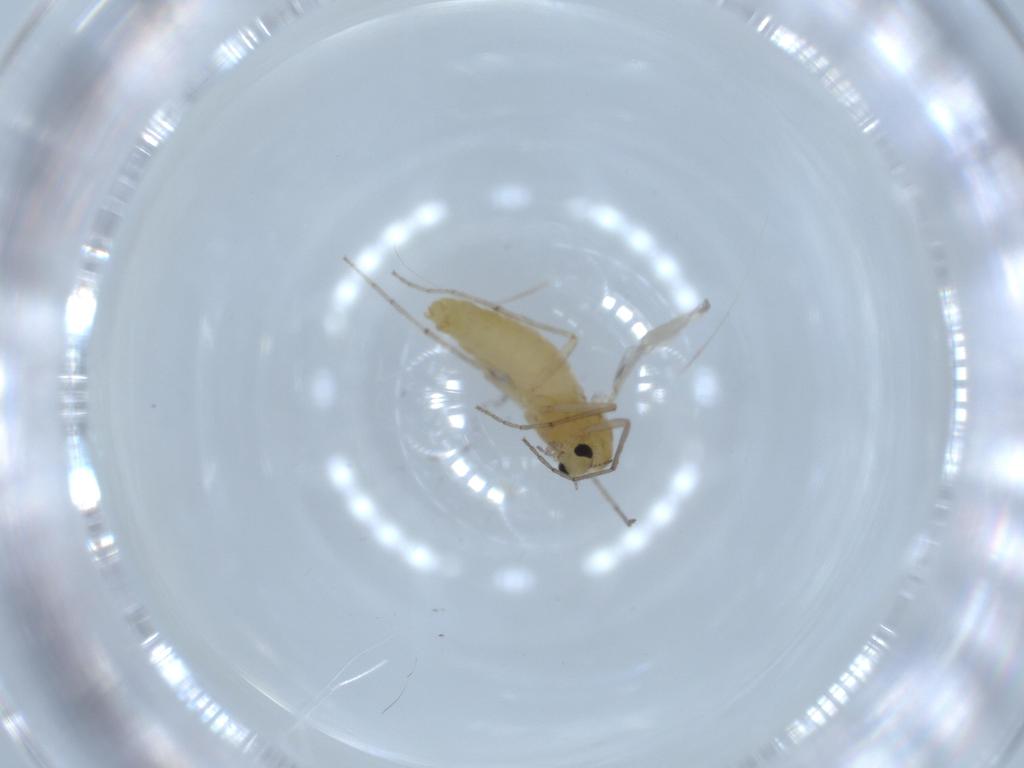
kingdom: Animalia
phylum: Arthropoda
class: Insecta
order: Diptera
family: Chironomidae
